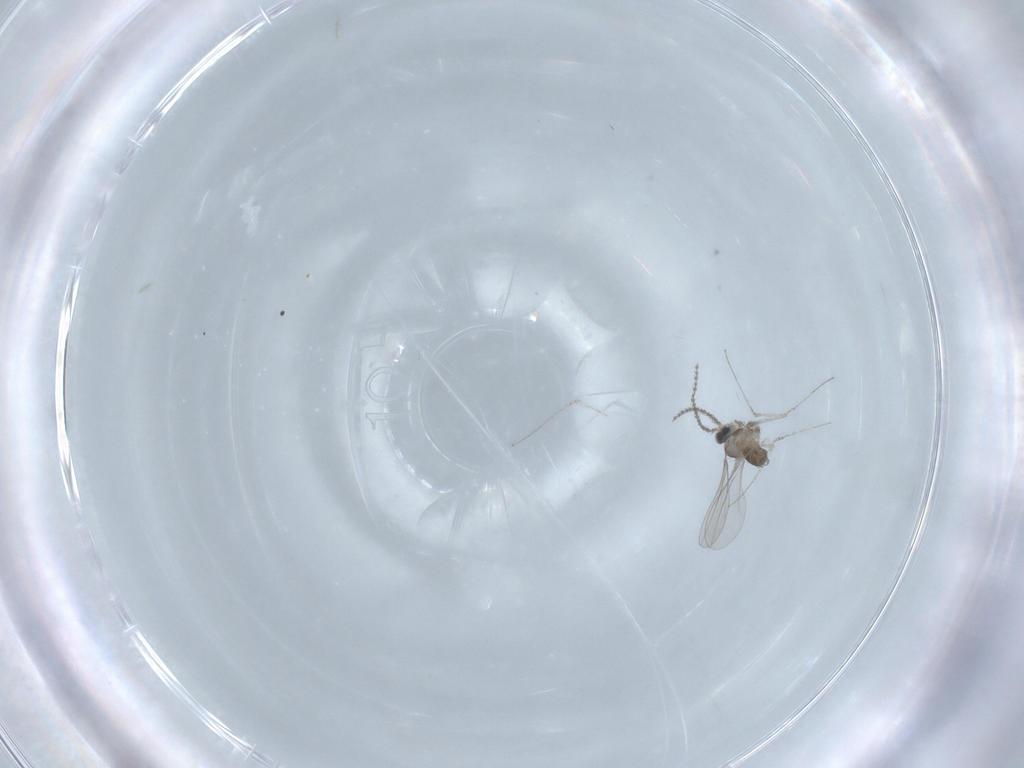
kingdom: Animalia
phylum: Arthropoda
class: Insecta
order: Diptera
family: Cecidomyiidae
